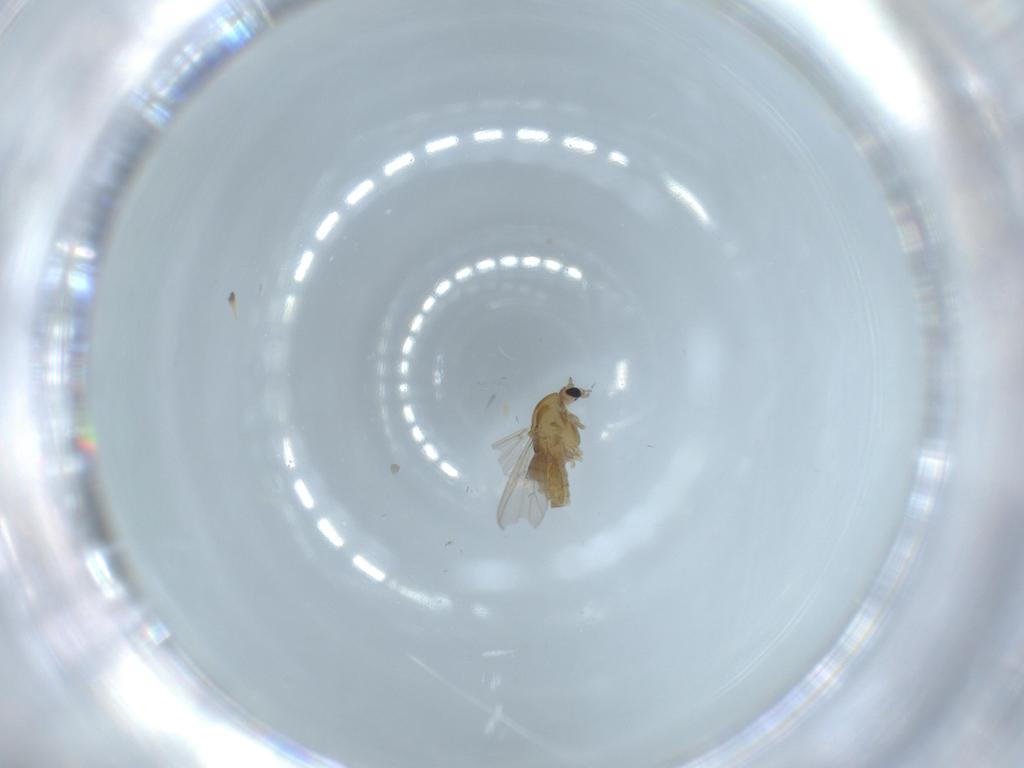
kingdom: Animalia
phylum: Arthropoda
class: Insecta
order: Diptera
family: Chironomidae
